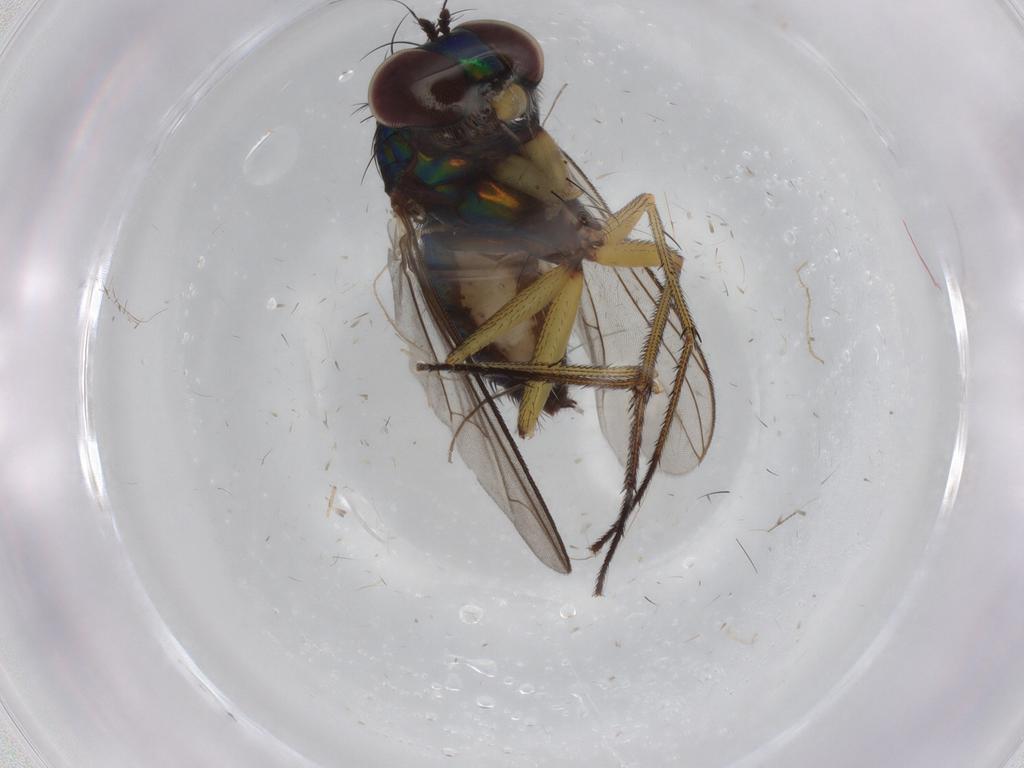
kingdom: Animalia
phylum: Arthropoda
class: Insecta
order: Diptera
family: Dolichopodidae
